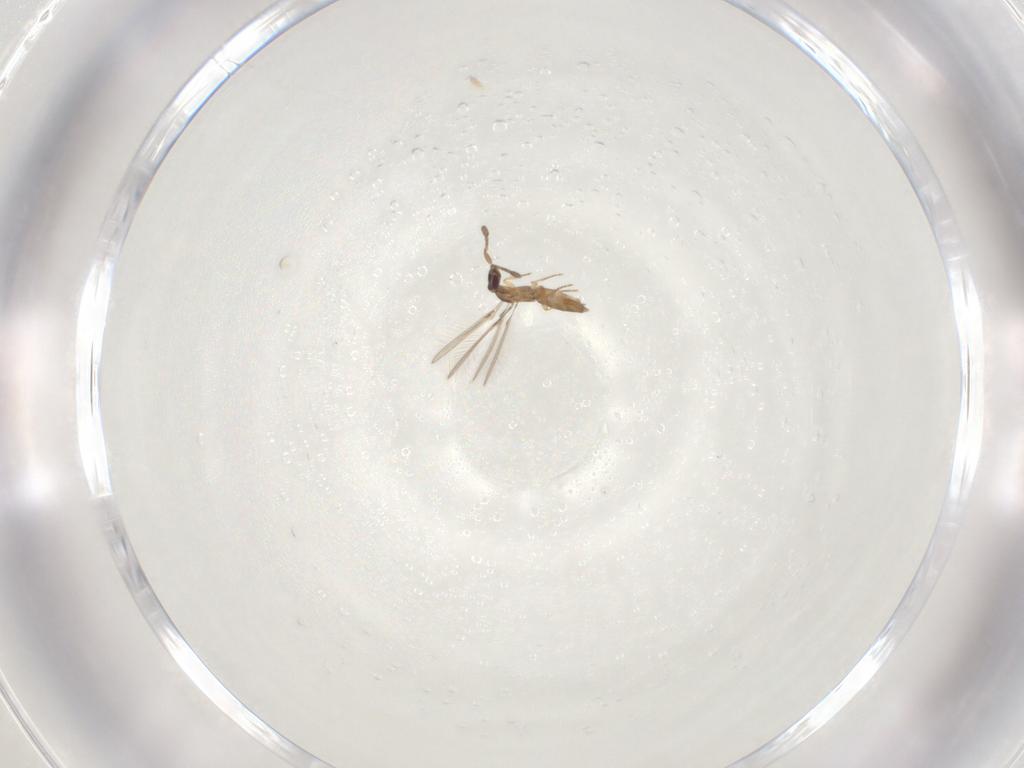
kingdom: Animalia
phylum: Arthropoda
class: Insecta
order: Hymenoptera
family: Mymaridae
